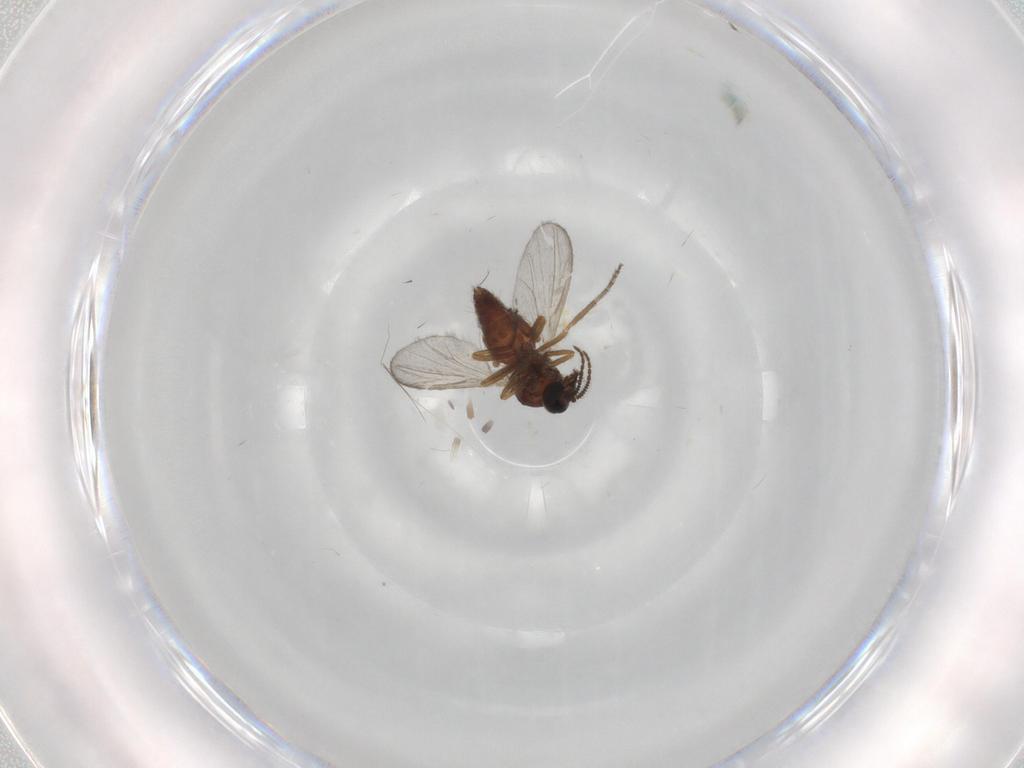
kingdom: Animalia
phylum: Arthropoda
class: Insecta
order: Diptera
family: Ceratopogonidae
